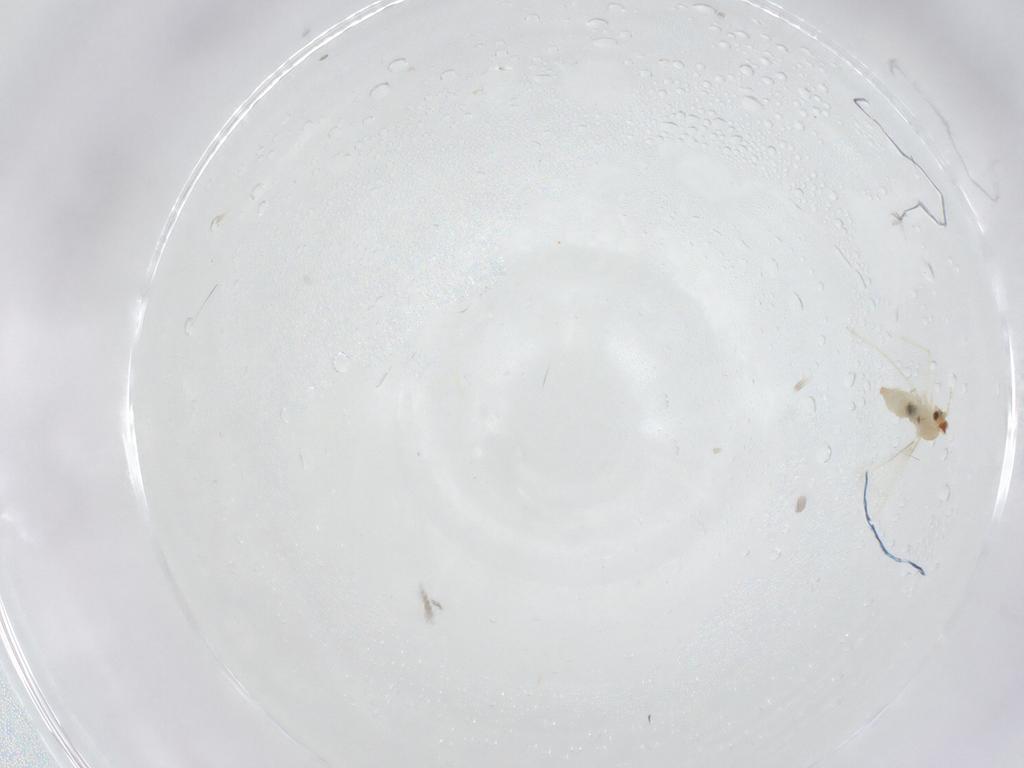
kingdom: Animalia
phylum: Arthropoda
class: Insecta
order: Diptera
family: Cecidomyiidae
